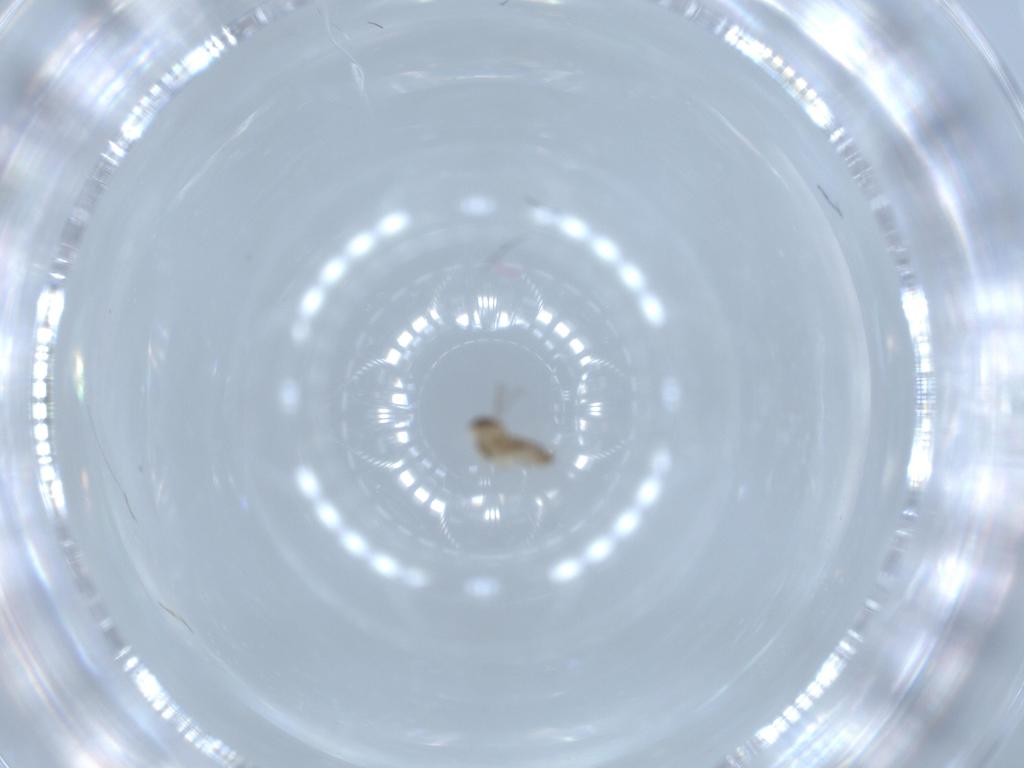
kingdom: Animalia
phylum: Arthropoda
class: Insecta
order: Diptera
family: Cecidomyiidae
